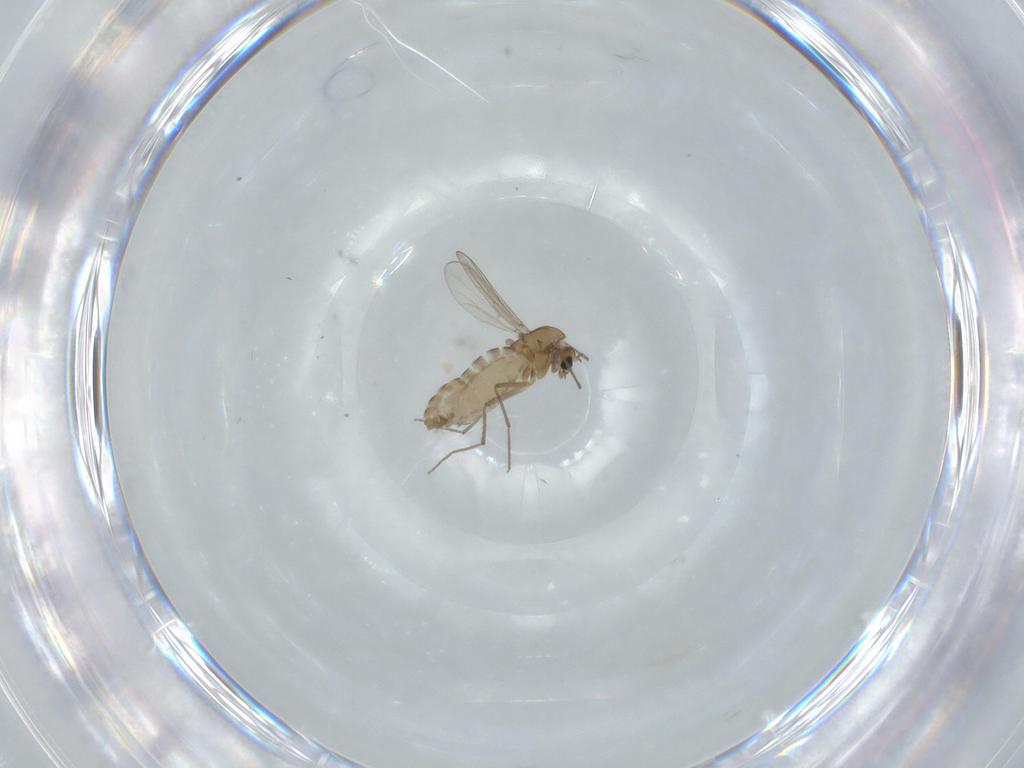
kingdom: Animalia
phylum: Arthropoda
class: Insecta
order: Diptera
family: Chironomidae
